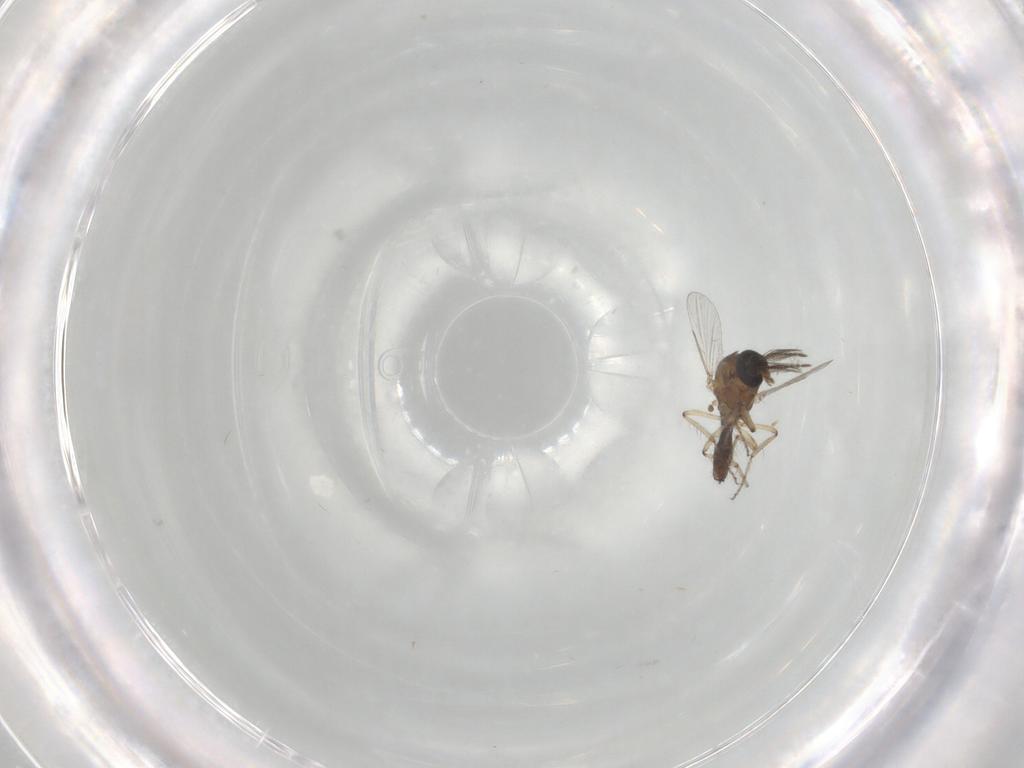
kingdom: Animalia
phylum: Arthropoda
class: Insecta
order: Diptera
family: Ceratopogonidae
